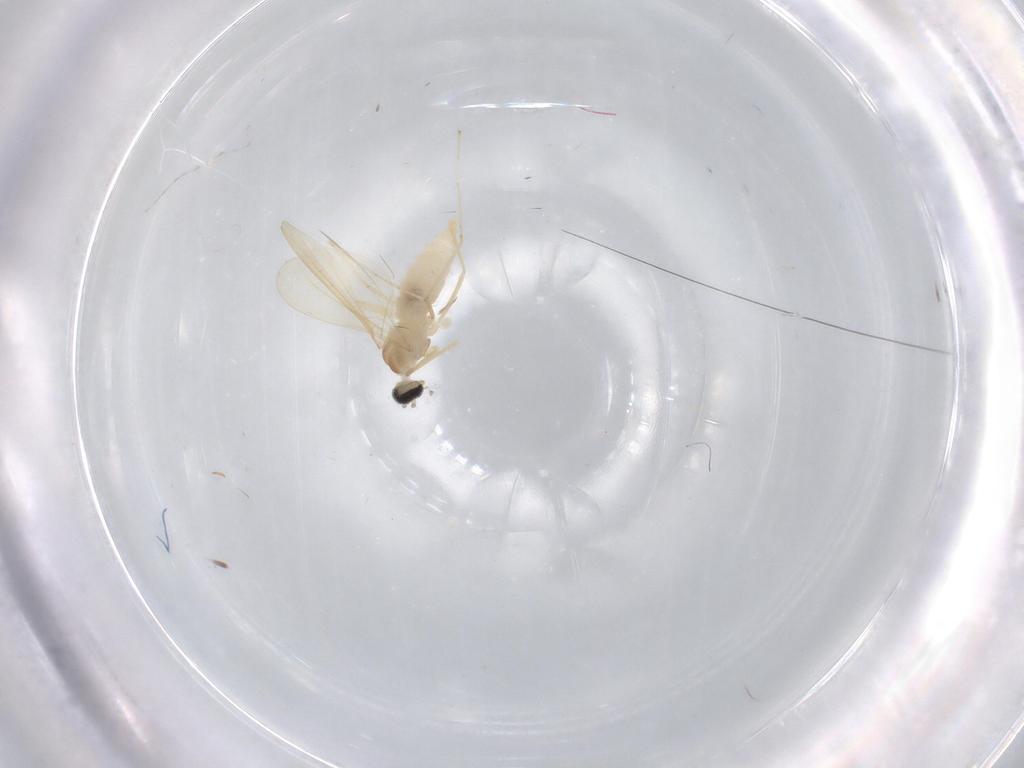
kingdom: Animalia
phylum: Arthropoda
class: Insecta
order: Diptera
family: Cecidomyiidae
